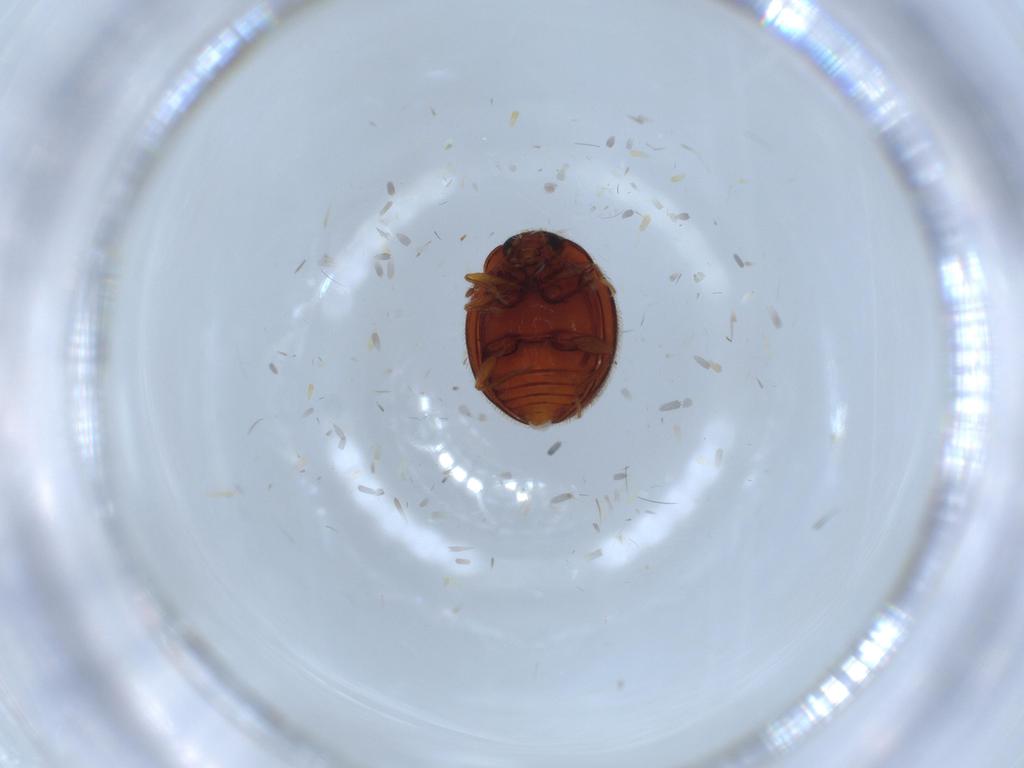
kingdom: Animalia
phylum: Arthropoda
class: Insecta
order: Coleoptera
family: Anamorphidae
